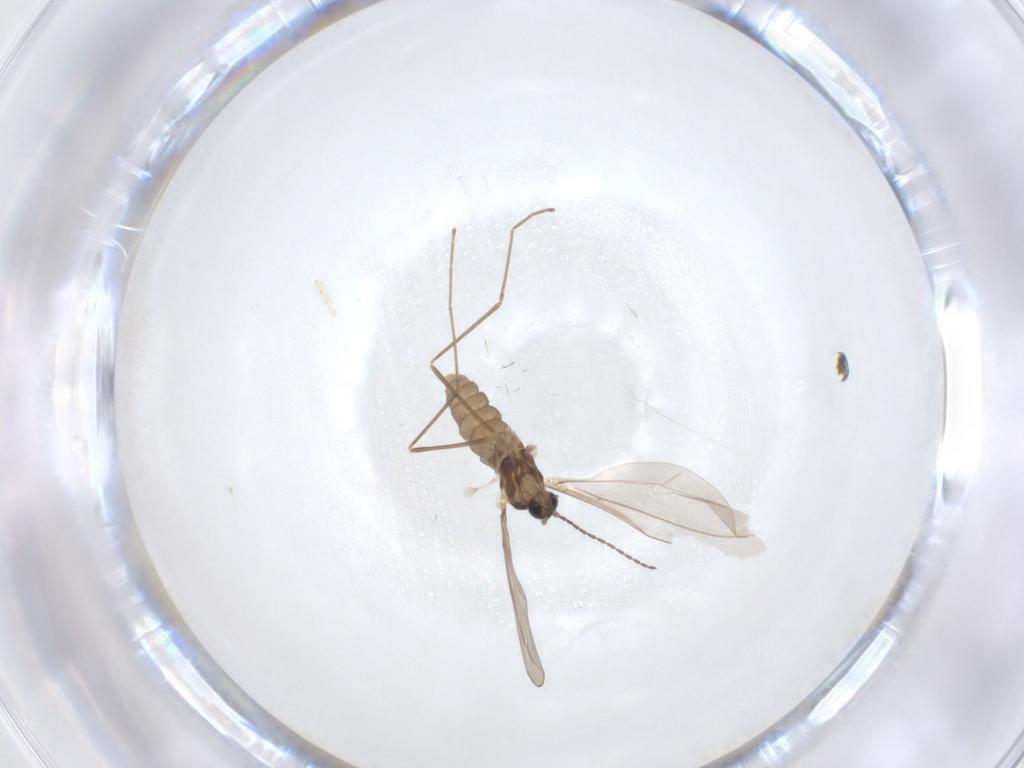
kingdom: Animalia
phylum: Arthropoda
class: Insecta
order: Diptera
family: Cecidomyiidae
